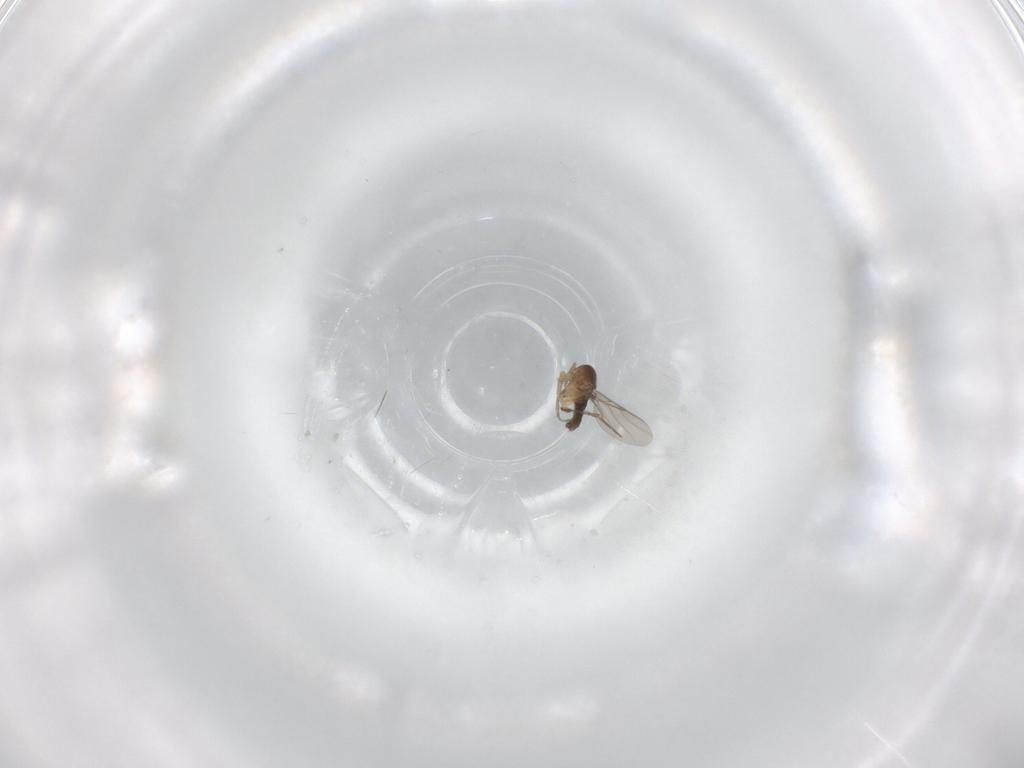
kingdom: Animalia
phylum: Arthropoda
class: Insecta
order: Diptera
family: Phoridae
